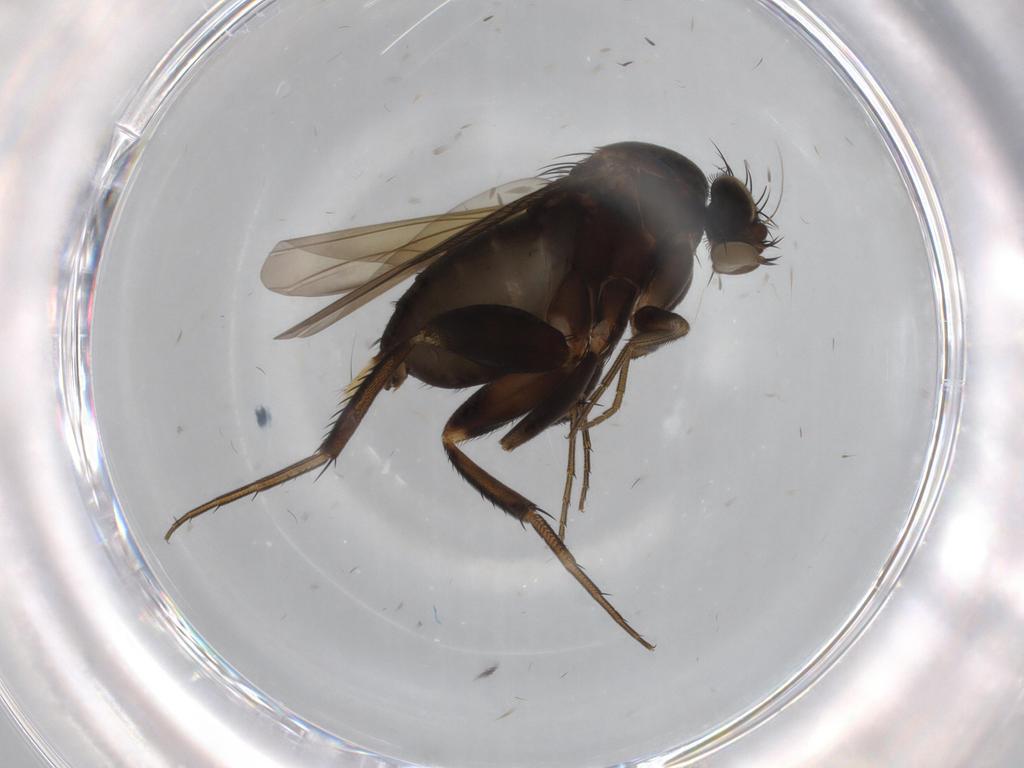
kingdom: Animalia
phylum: Arthropoda
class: Insecta
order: Diptera
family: Phoridae
